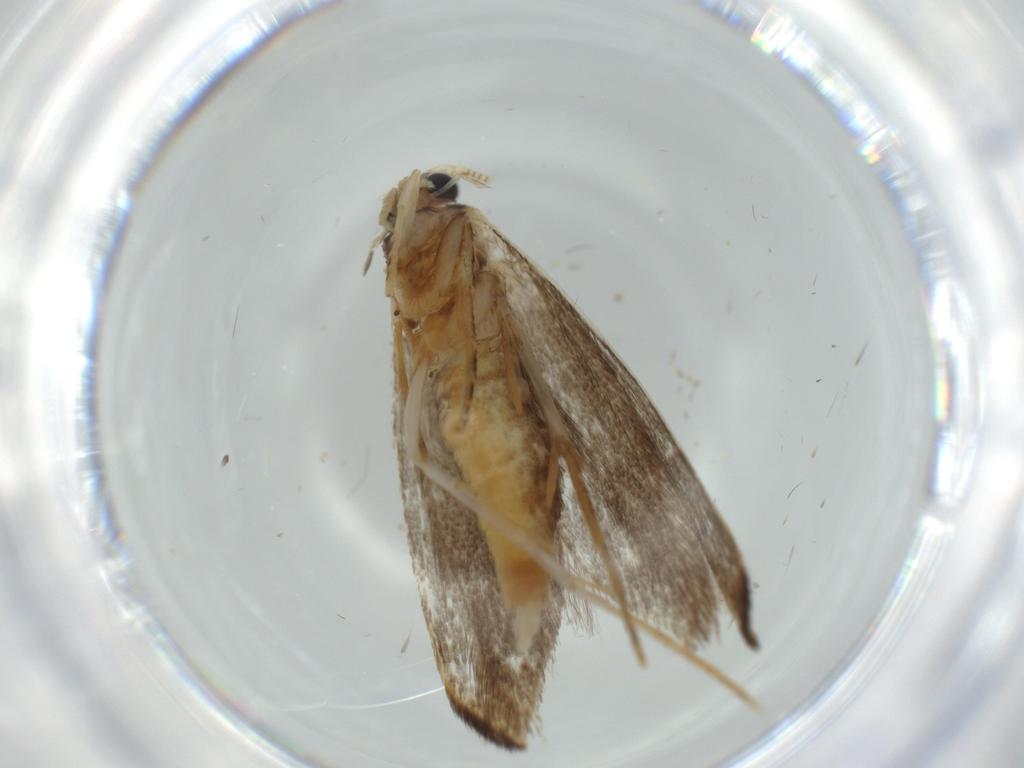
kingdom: Animalia
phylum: Arthropoda
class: Insecta
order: Lepidoptera
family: Tineidae
